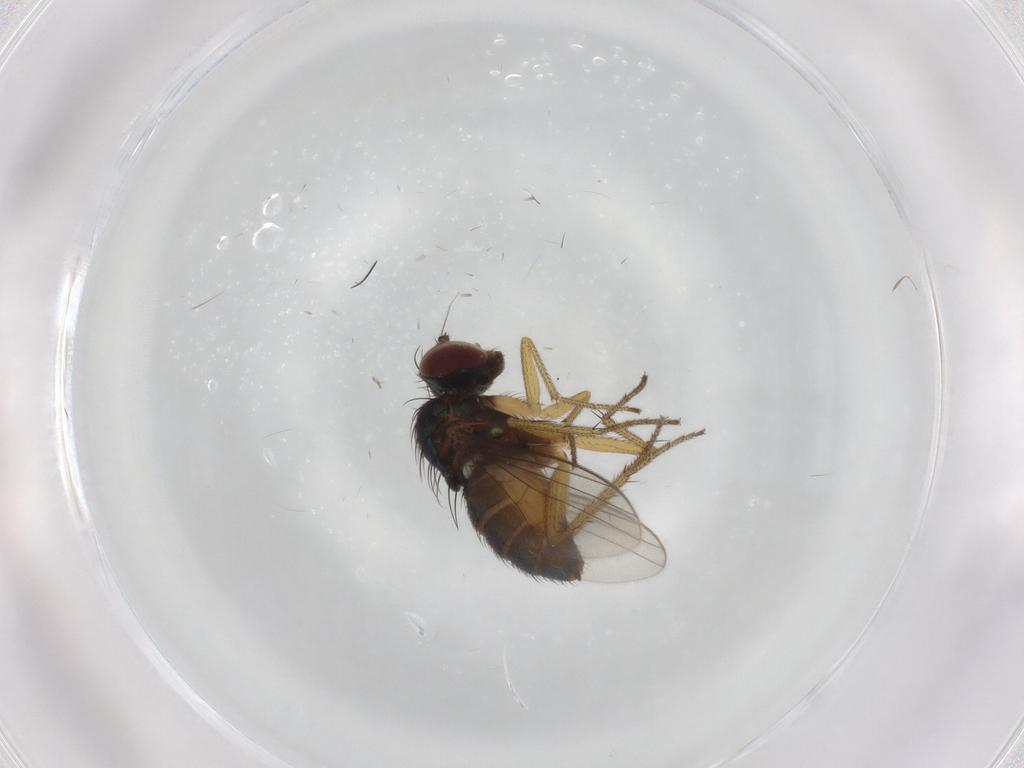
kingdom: Animalia
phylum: Arthropoda
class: Insecta
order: Diptera
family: Dolichopodidae
